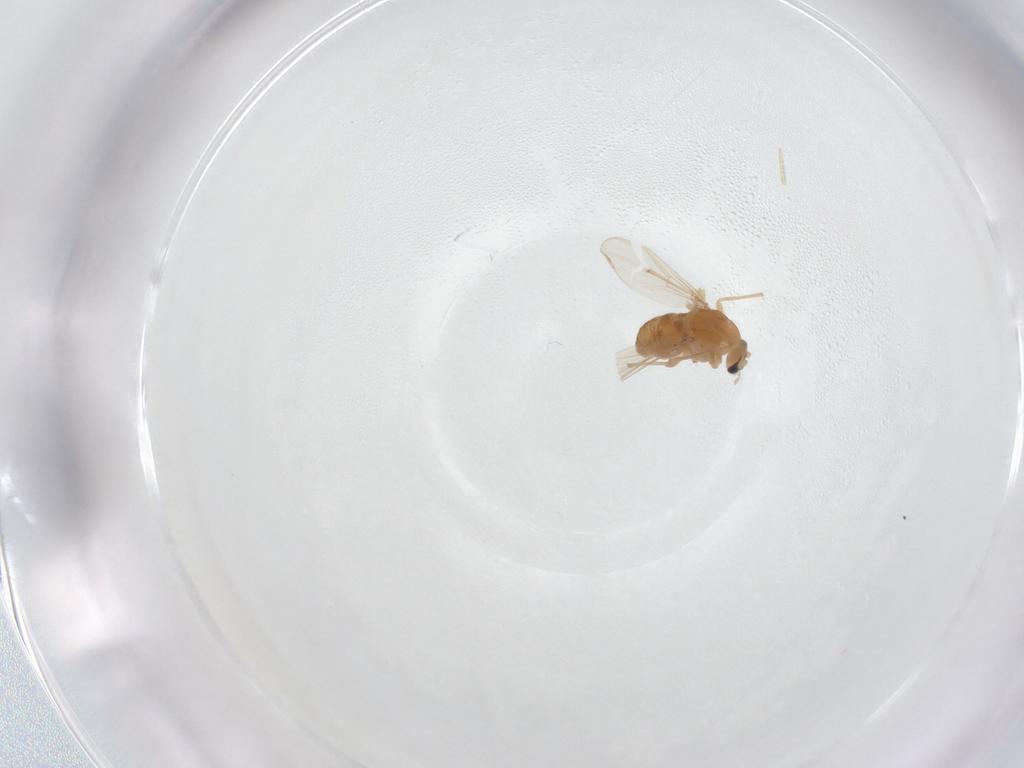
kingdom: Animalia
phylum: Arthropoda
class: Insecta
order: Diptera
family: Chironomidae
